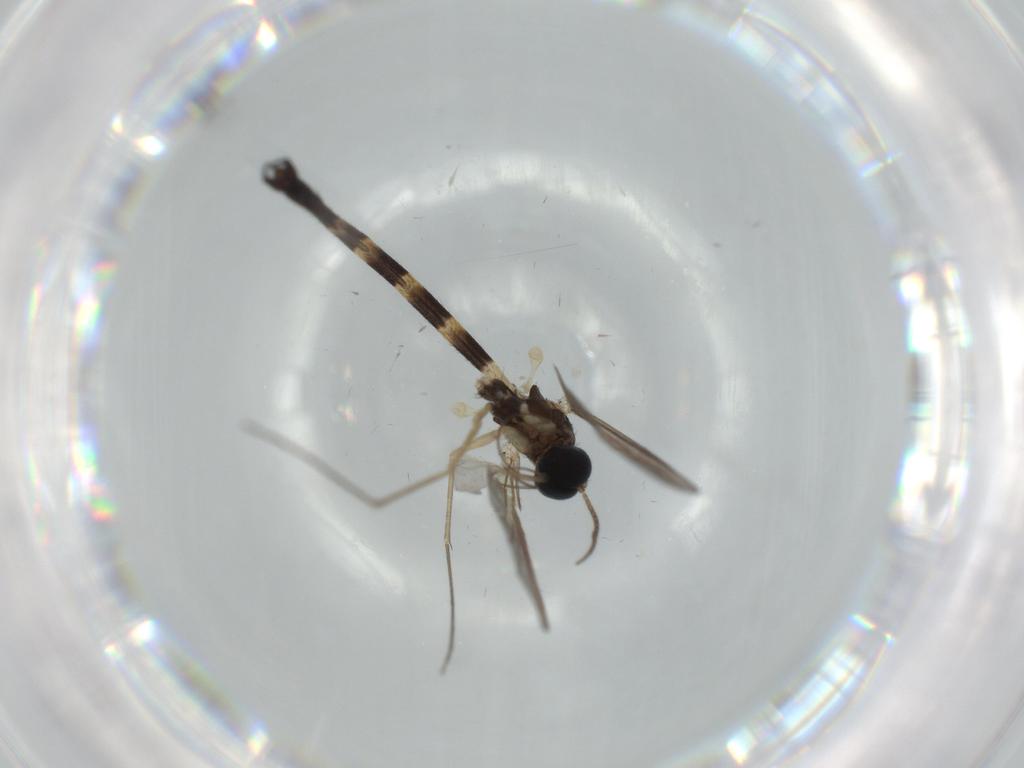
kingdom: Animalia
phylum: Arthropoda
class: Insecta
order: Diptera
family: Cecidomyiidae
